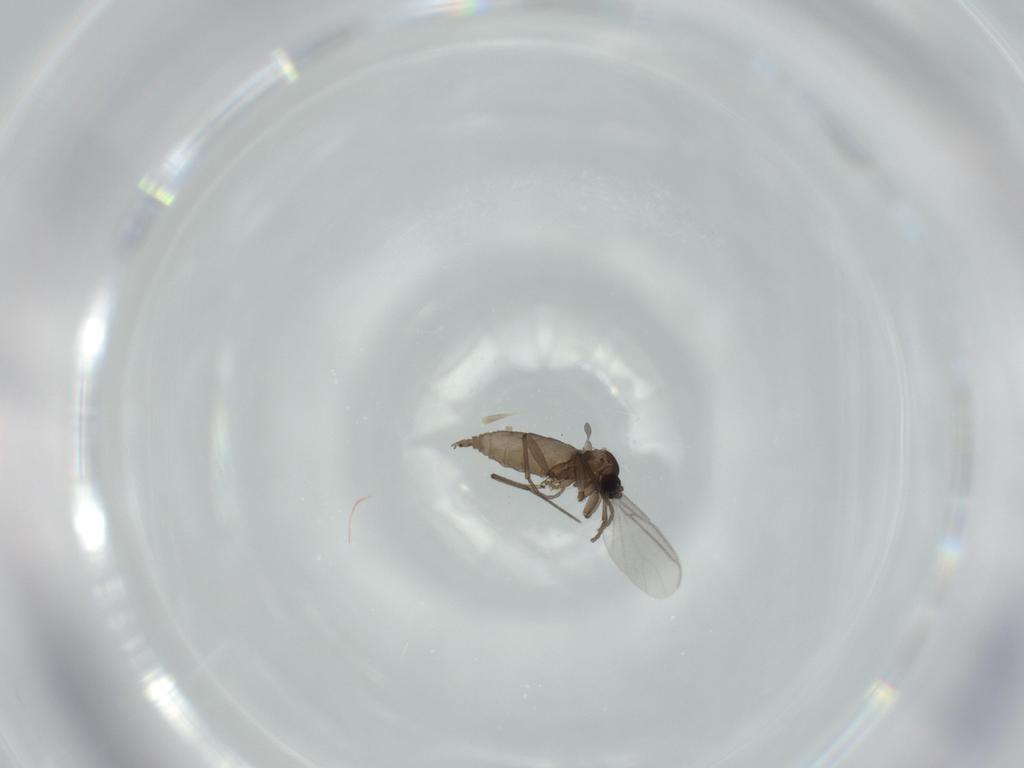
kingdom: Animalia
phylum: Arthropoda
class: Insecta
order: Diptera
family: Sciaridae
